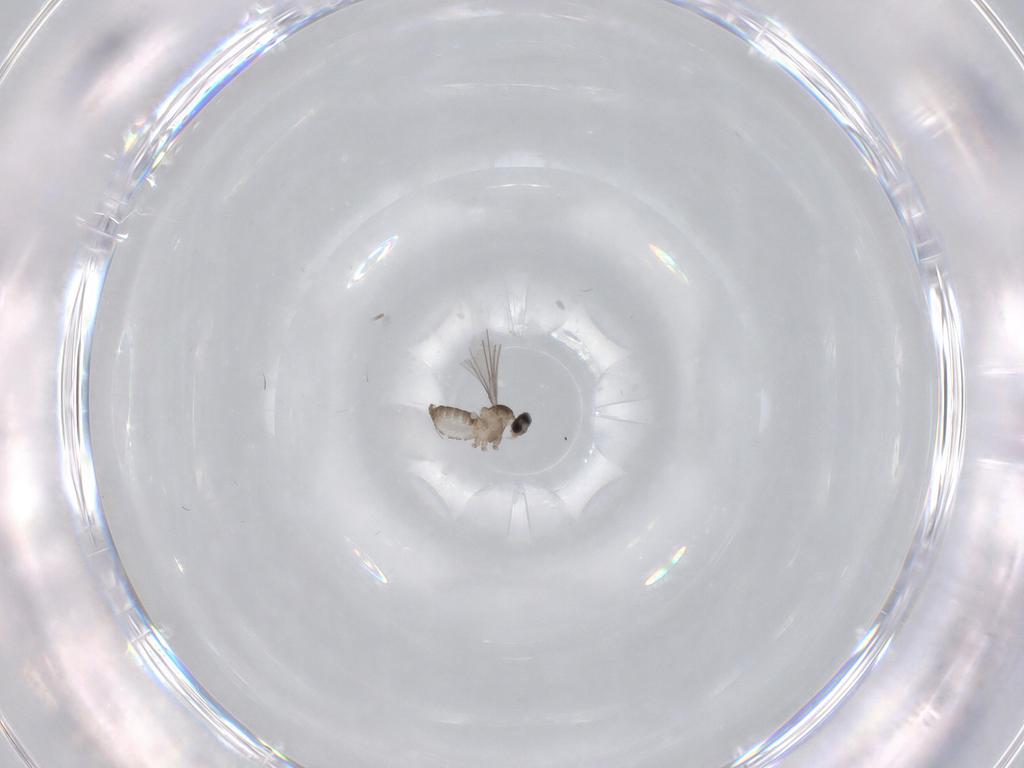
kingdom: Animalia
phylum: Arthropoda
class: Insecta
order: Diptera
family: Cecidomyiidae
